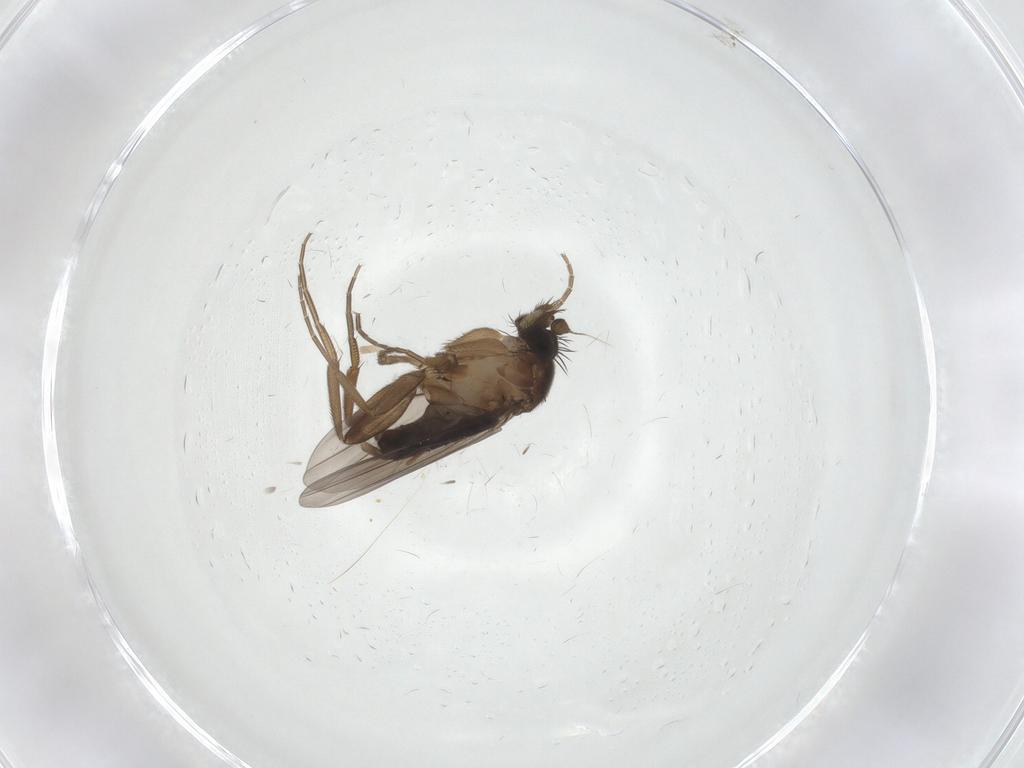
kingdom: Animalia
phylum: Arthropoda
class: Insecta
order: Diptera
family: Phoridae
